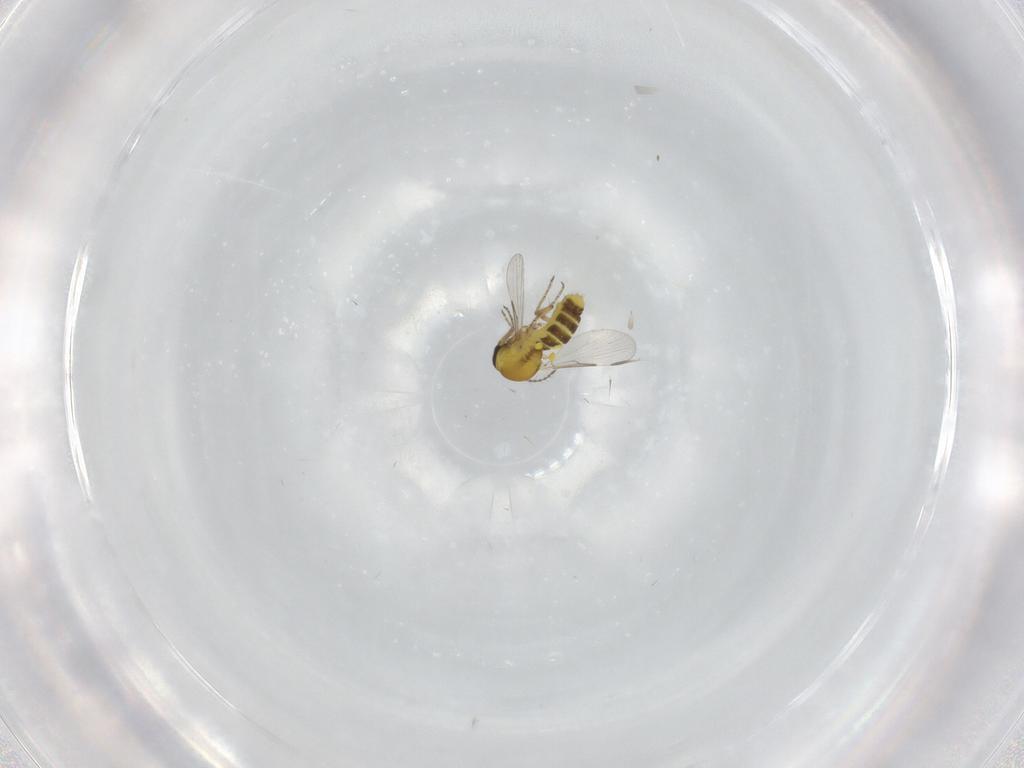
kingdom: Animalia
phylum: Arthropoda
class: Insecta
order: Diptera
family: Ceratopogonidae
